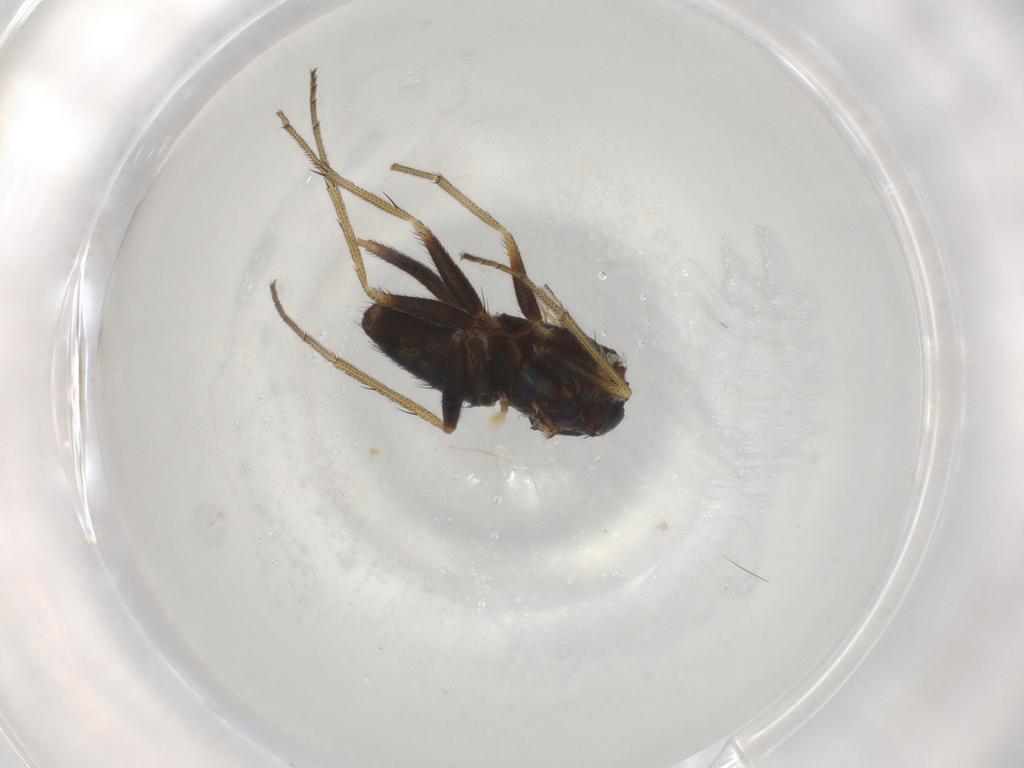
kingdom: Animalia
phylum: Arthropoda
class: Insecta
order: Diptera
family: Dolichopodidae
